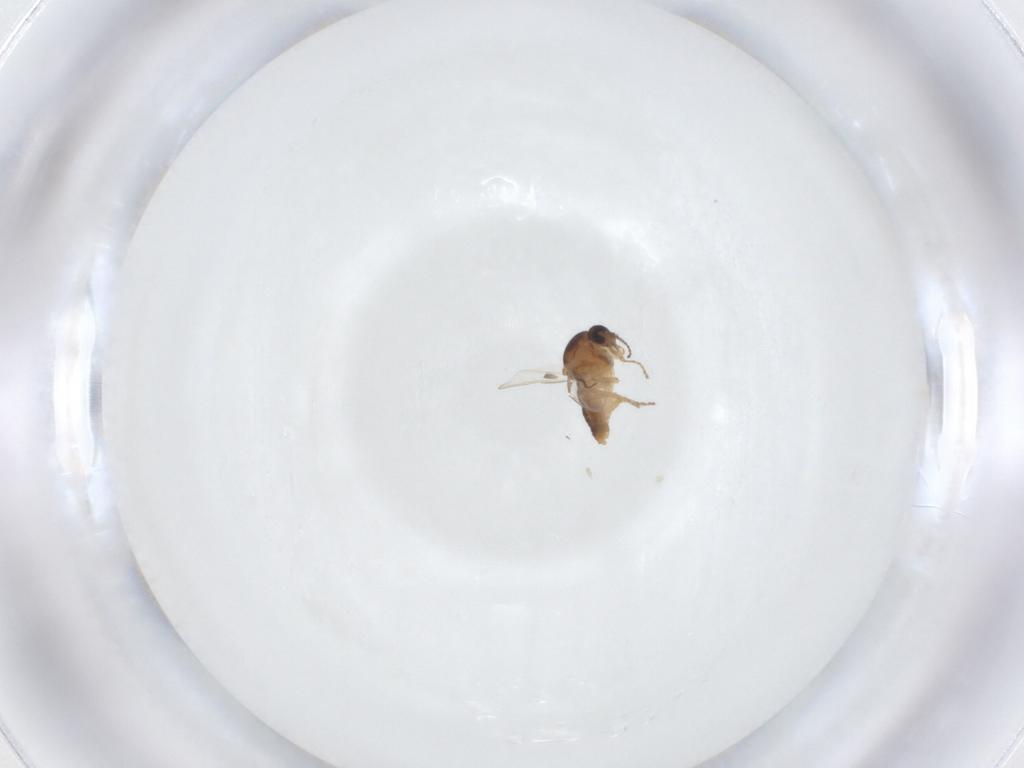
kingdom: Animalia
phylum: Arthropoda
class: Insecta
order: Diptera
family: Ceratopogonidae
